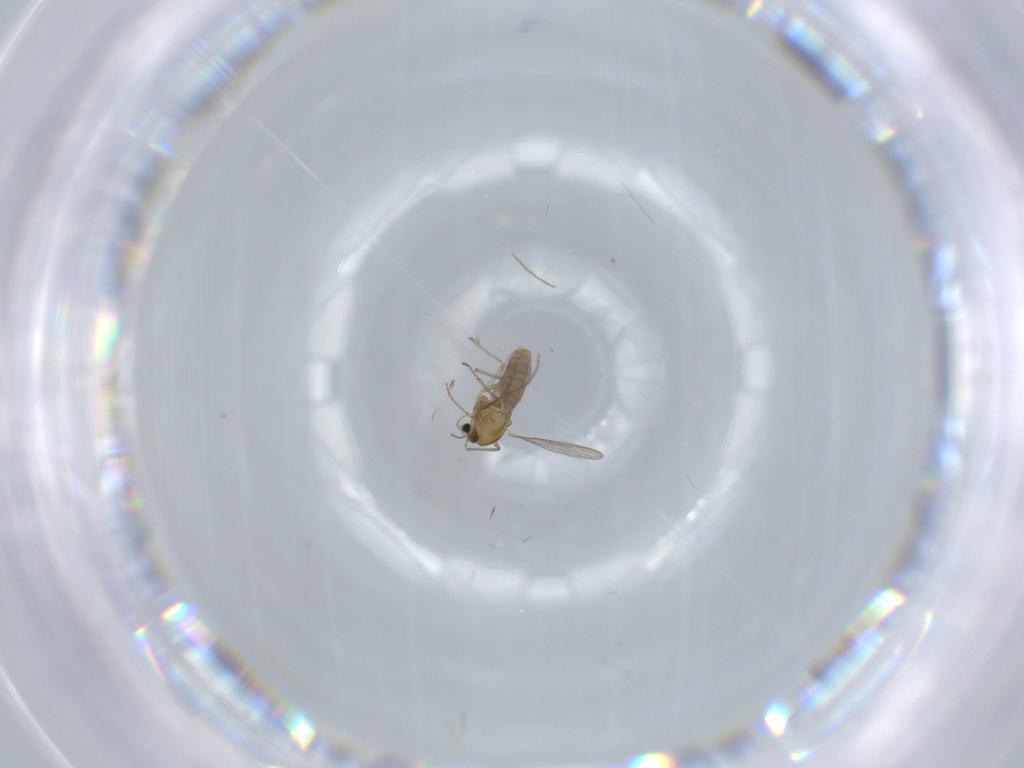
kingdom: Animalia
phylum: Arthropoda
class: Insecta
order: Diptera
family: Chironomidae
